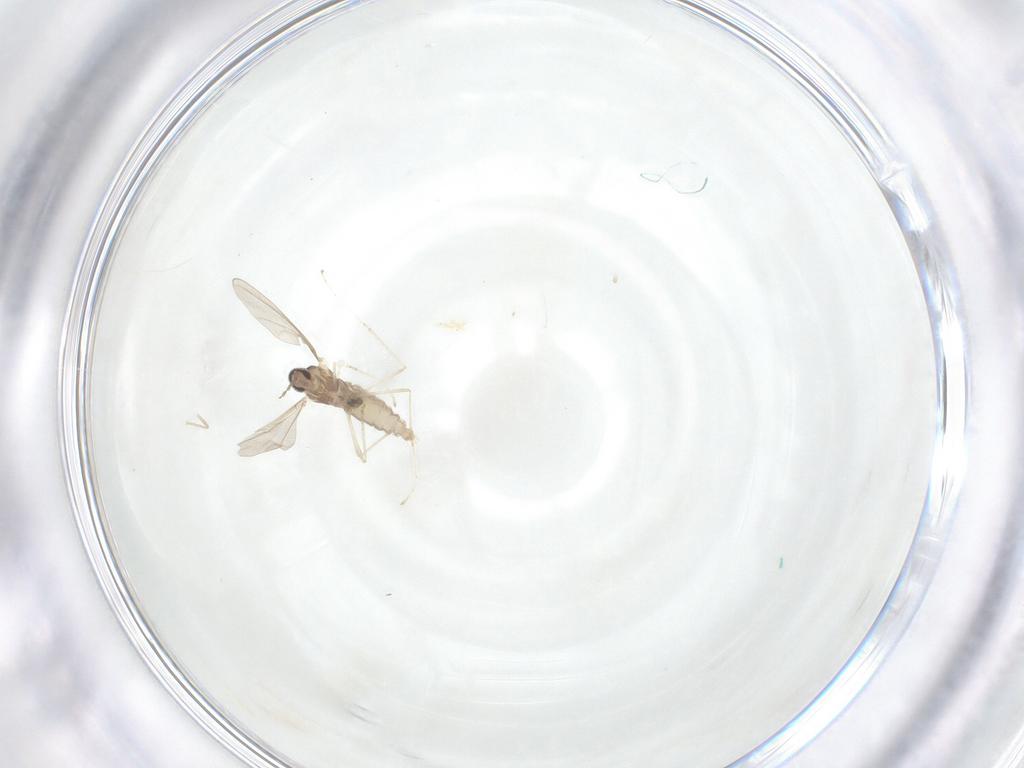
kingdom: Animalia
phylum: Arthropoda
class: Insecta
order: Diptera
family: Cecidomyiidae
